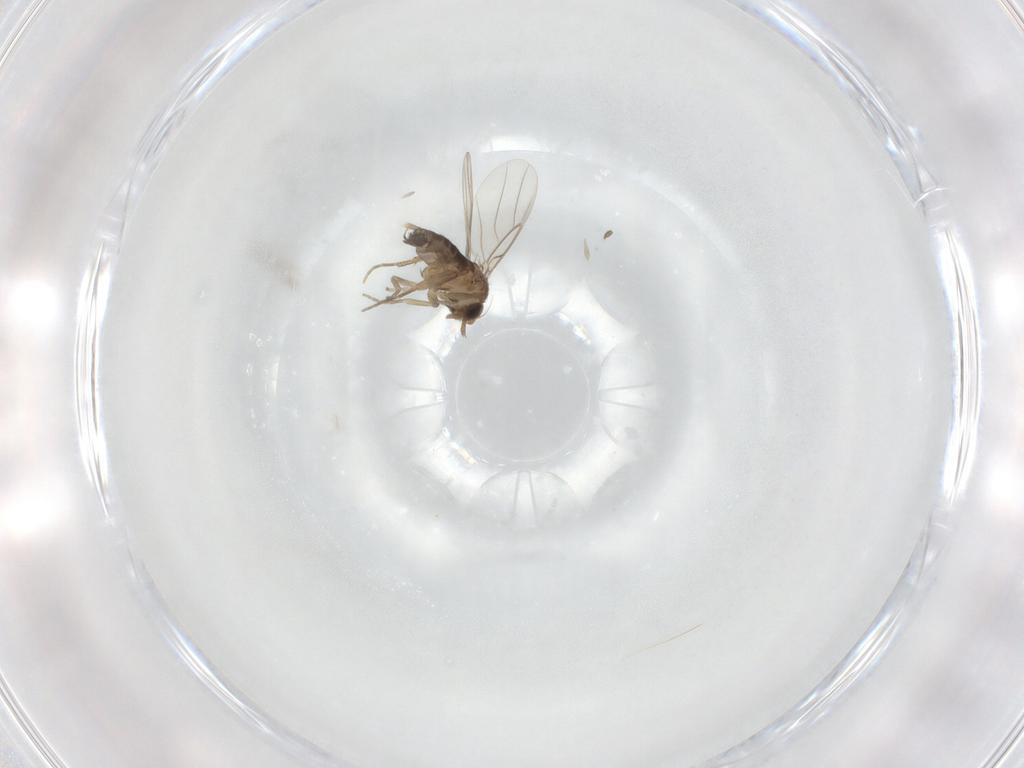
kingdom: Animalia
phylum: Arthropoda
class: Insecta
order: Diptera
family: Phoridae
